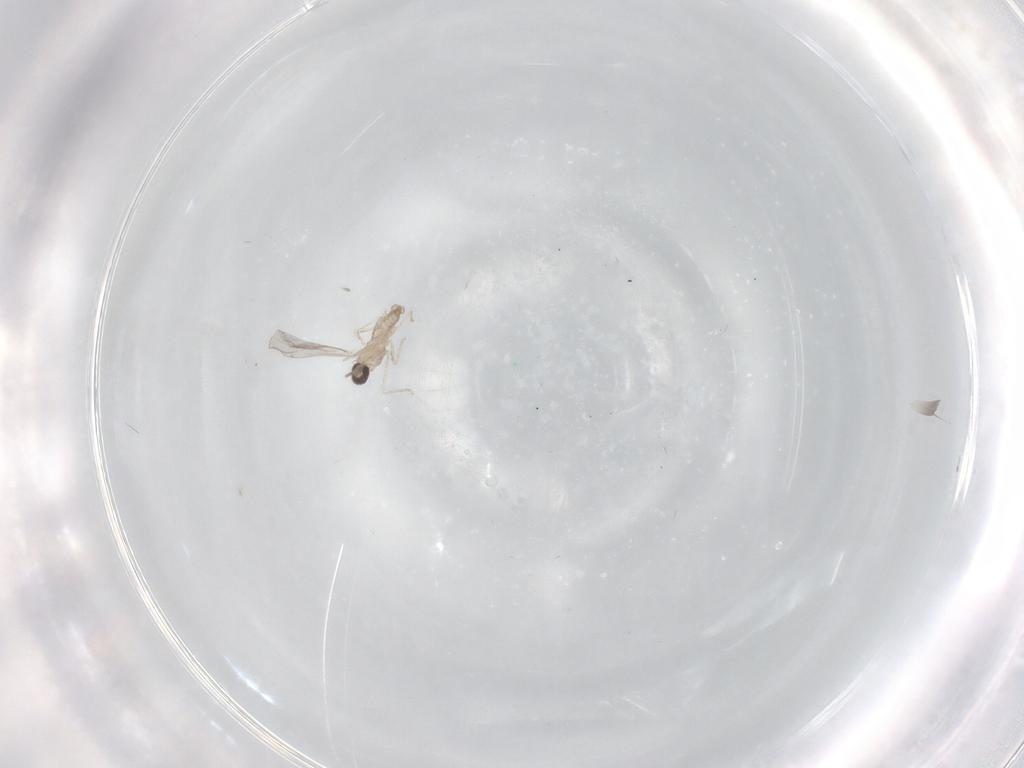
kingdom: Animalia
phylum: Arthropoda
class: Insecta
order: Diptera
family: Cecidomyiidae
